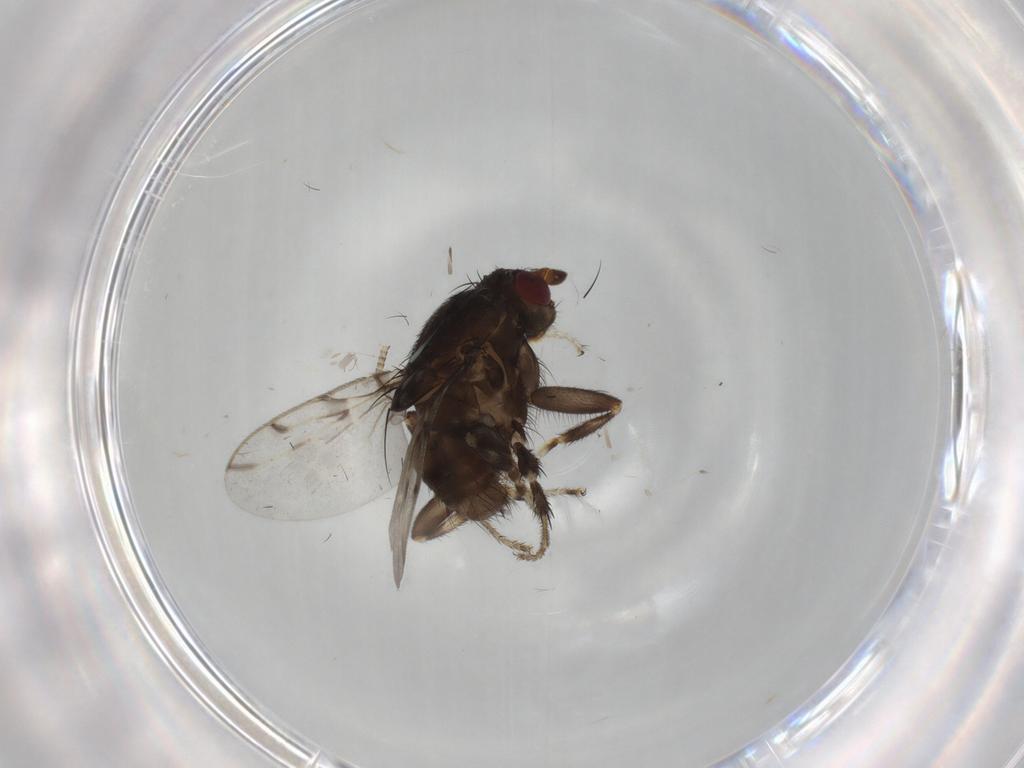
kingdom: Animalia
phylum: Arthropoda
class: Insecta
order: Diptera
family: Sphaeroceridae
